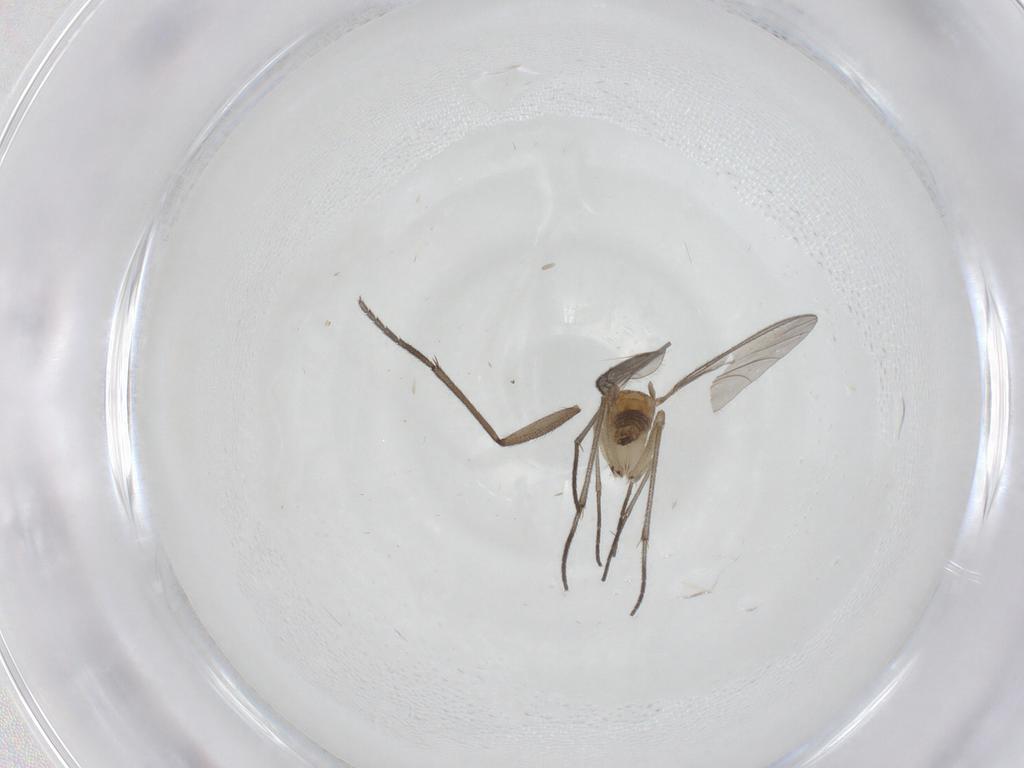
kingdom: Animalia
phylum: Arthropoda
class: Insecta
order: Diptera
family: Sciaridae
